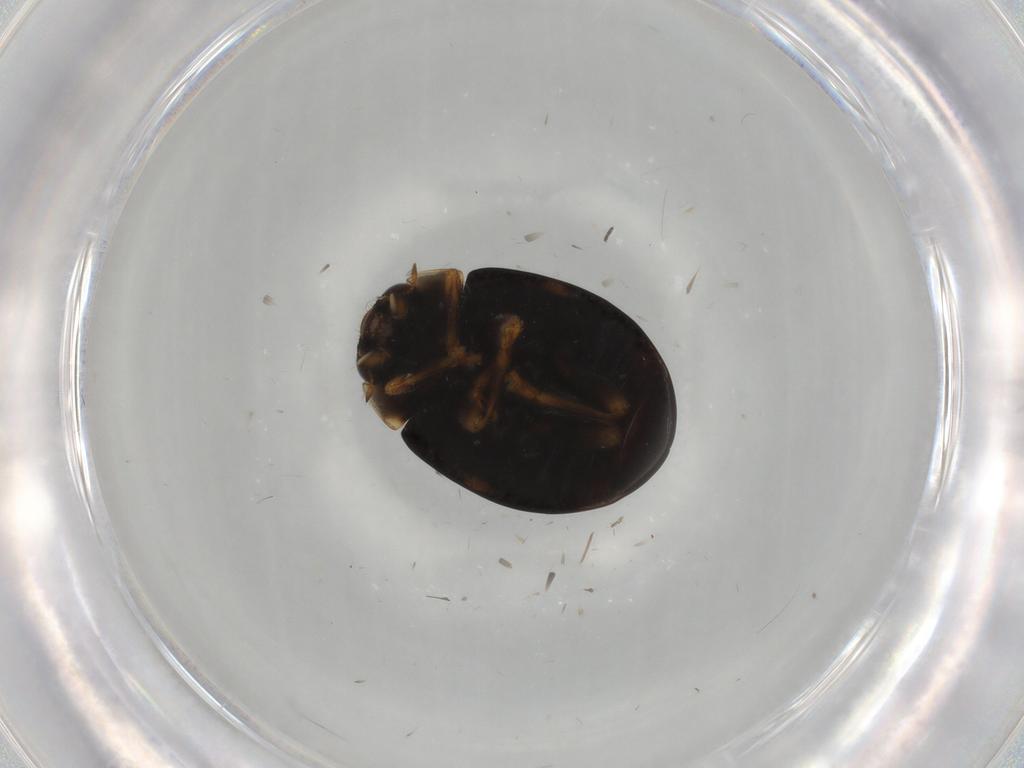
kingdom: Animalia
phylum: Arthropoda
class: Insecta
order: Coleoptera
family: Coccinellidae
